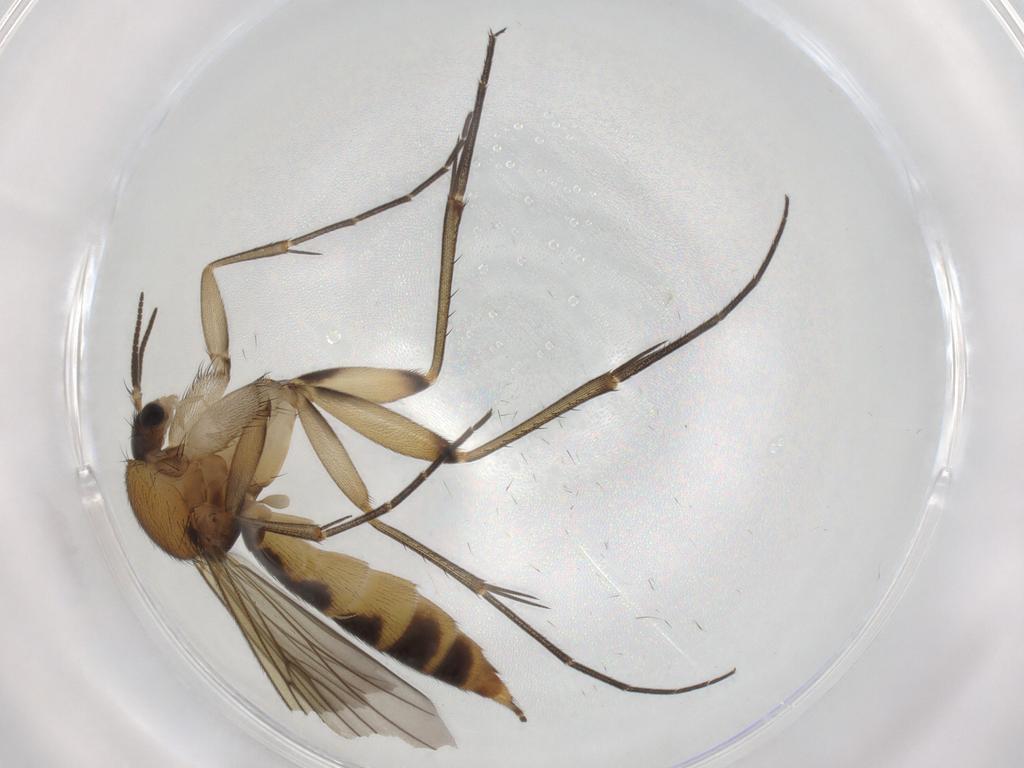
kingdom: Animalia
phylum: Arthropoda
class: Insecta
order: Diptera
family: Mycetophilidae
